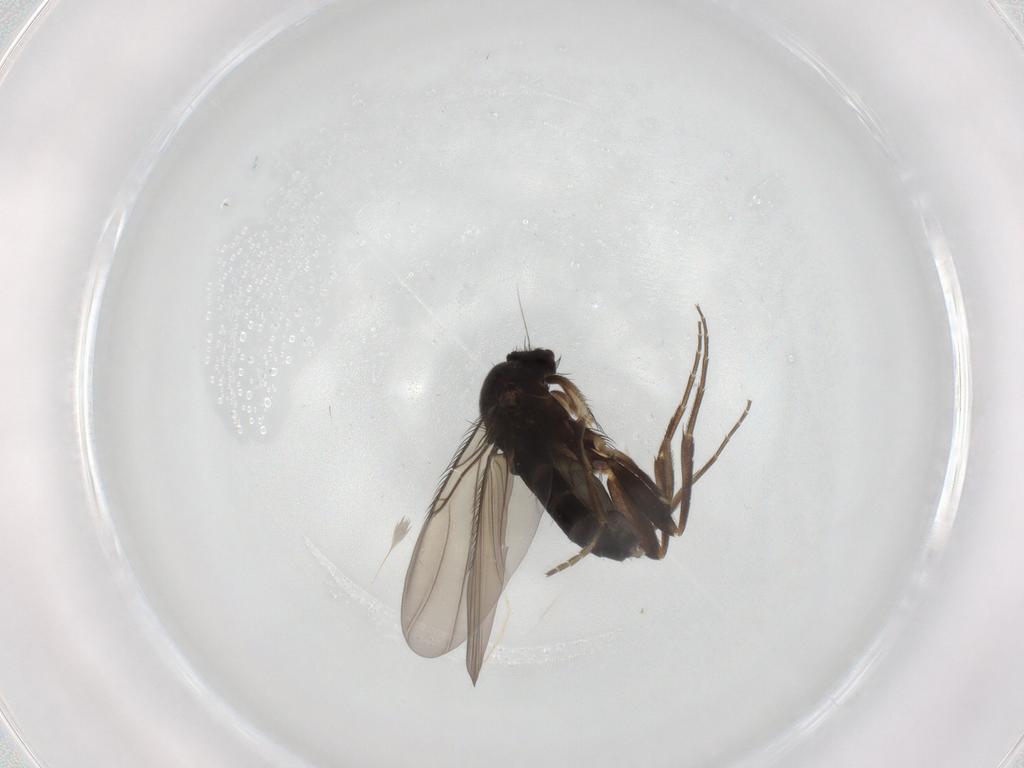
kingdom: Animalia
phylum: Arthropoda
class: Insecta
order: Diptera
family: Phoridae
